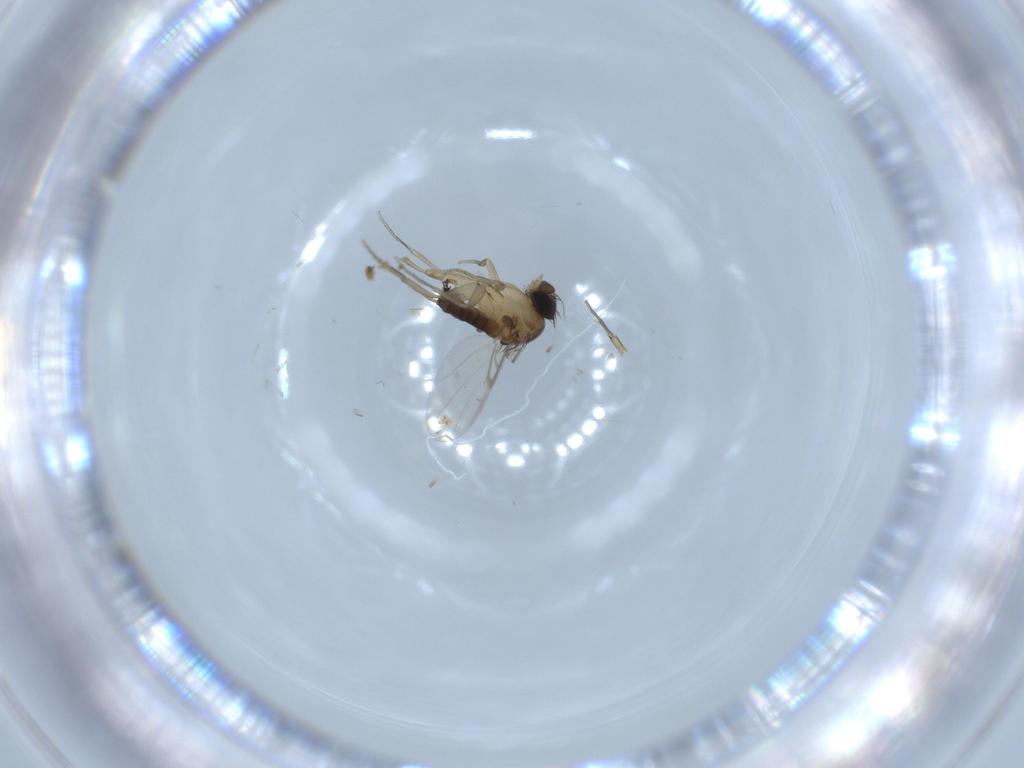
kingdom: Animalia
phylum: Arthropoda
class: Insecta
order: Diptera
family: Phoridae
